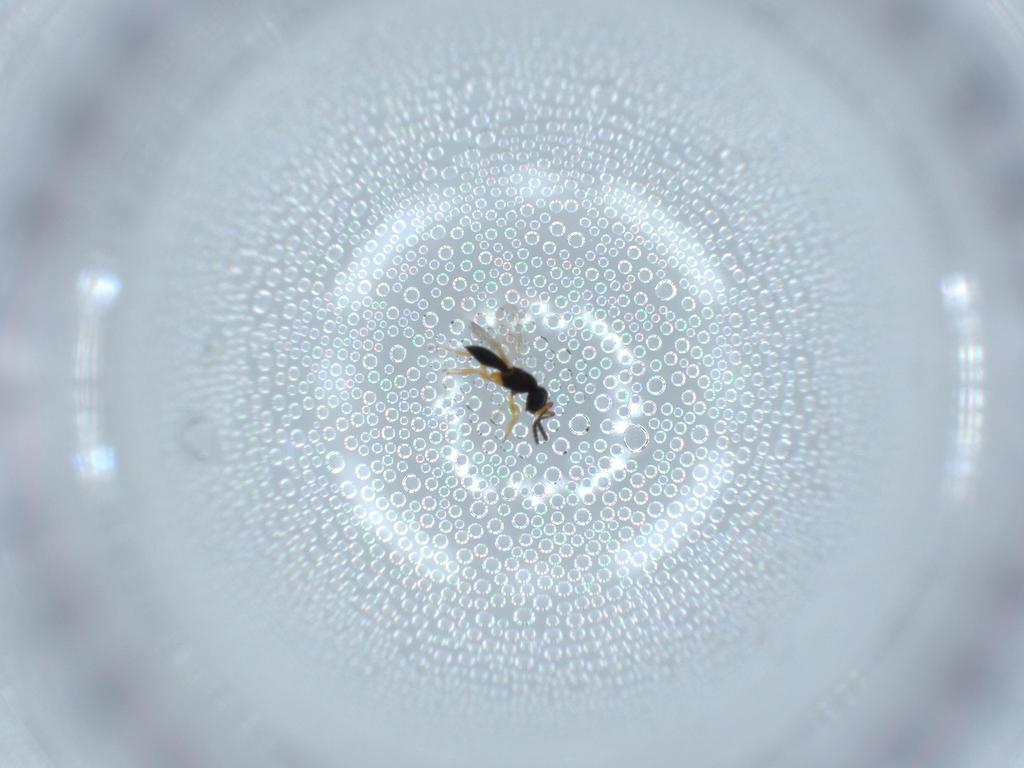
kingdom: Animalia
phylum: Arthropoda
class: Insecta
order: Hymenoptera
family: Scelionidae
